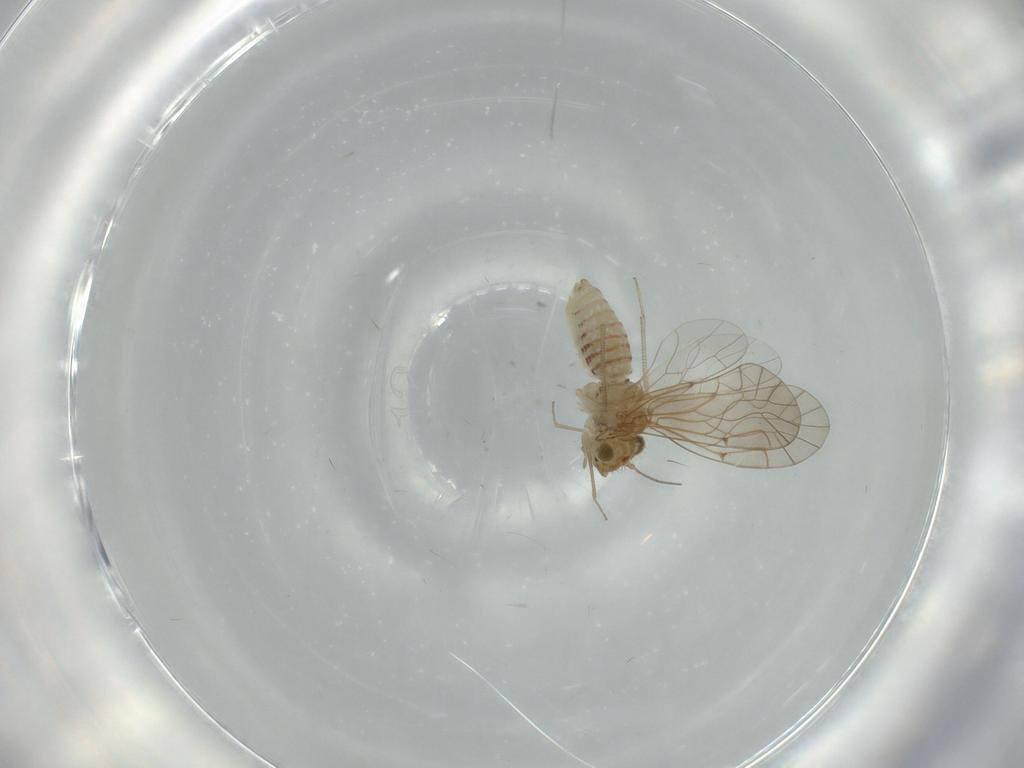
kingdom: Animalia
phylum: Arthropoda
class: Insecta
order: Psocodea
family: Lachesillidae
